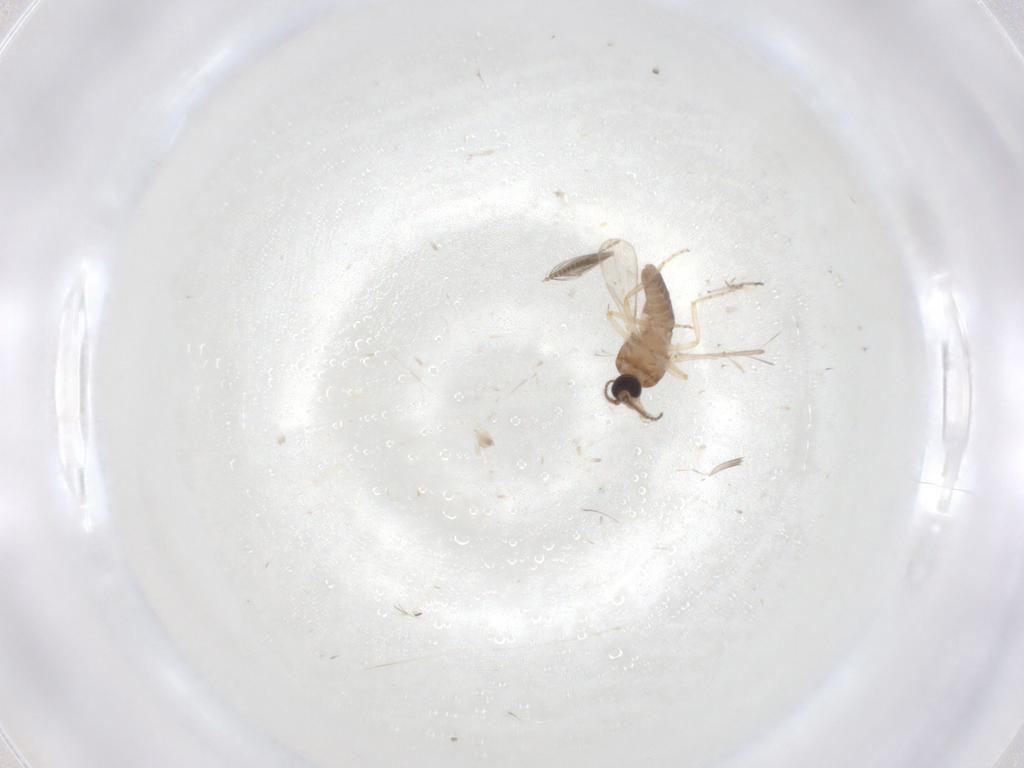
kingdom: Animalia
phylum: Arthropoda
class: Insecta
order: Diptera
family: Ceratopogonidae
